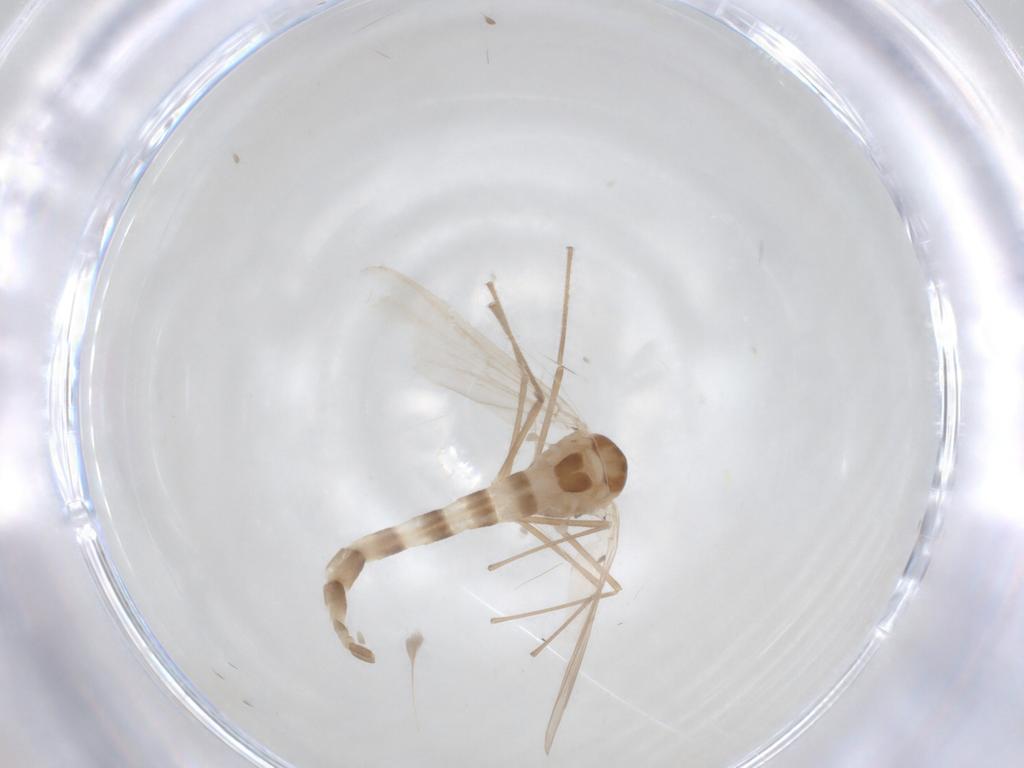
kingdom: Animalia
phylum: Arthropoda
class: Insecta
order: Diptera
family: Chironomidae
